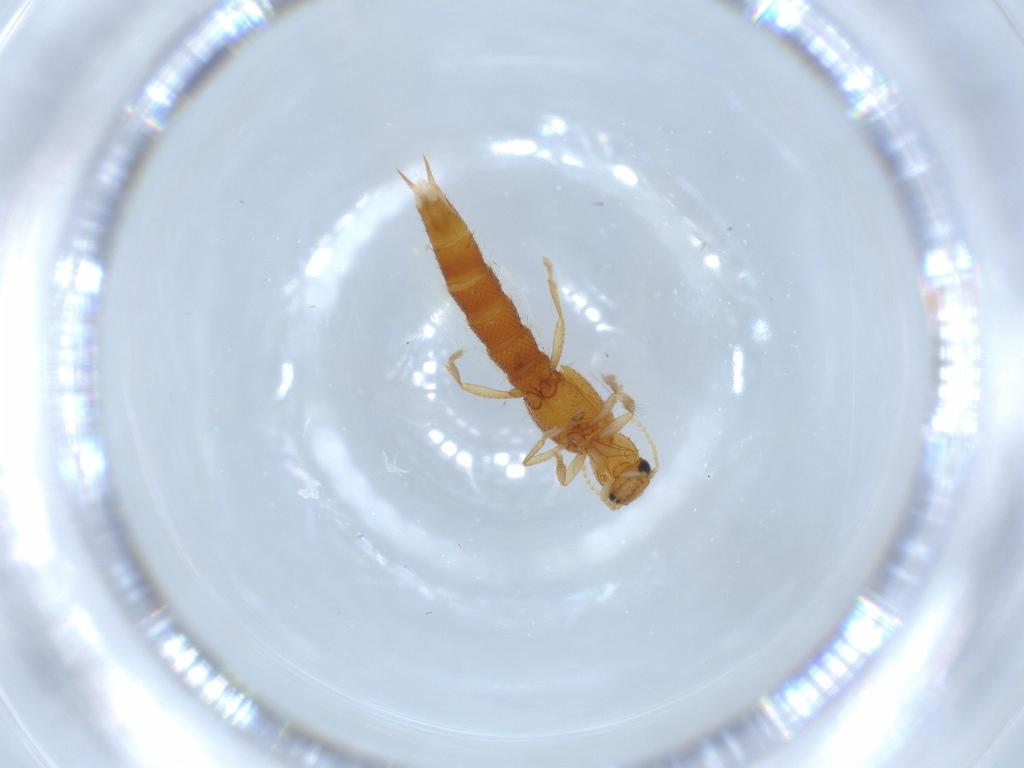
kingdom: Animalia
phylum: Arthropoda
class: Insecta
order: Coleoptera
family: Staphylinidae
